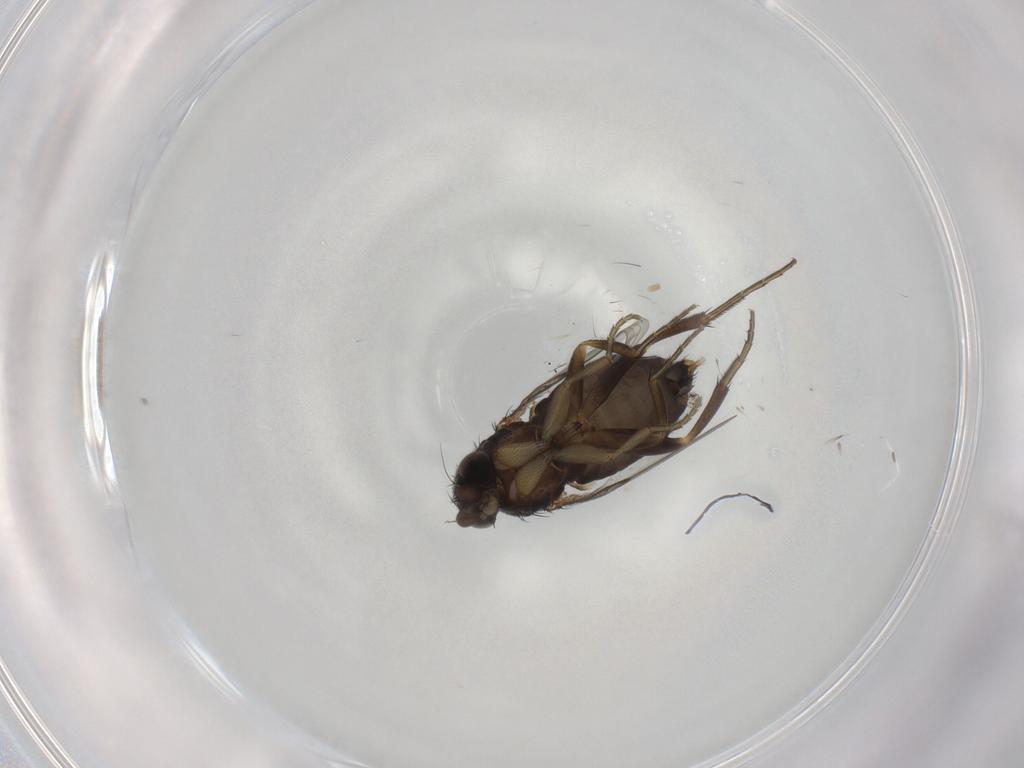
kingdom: Animalia
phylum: Arthropoda
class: Insecta
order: Diptera
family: Phoridae
